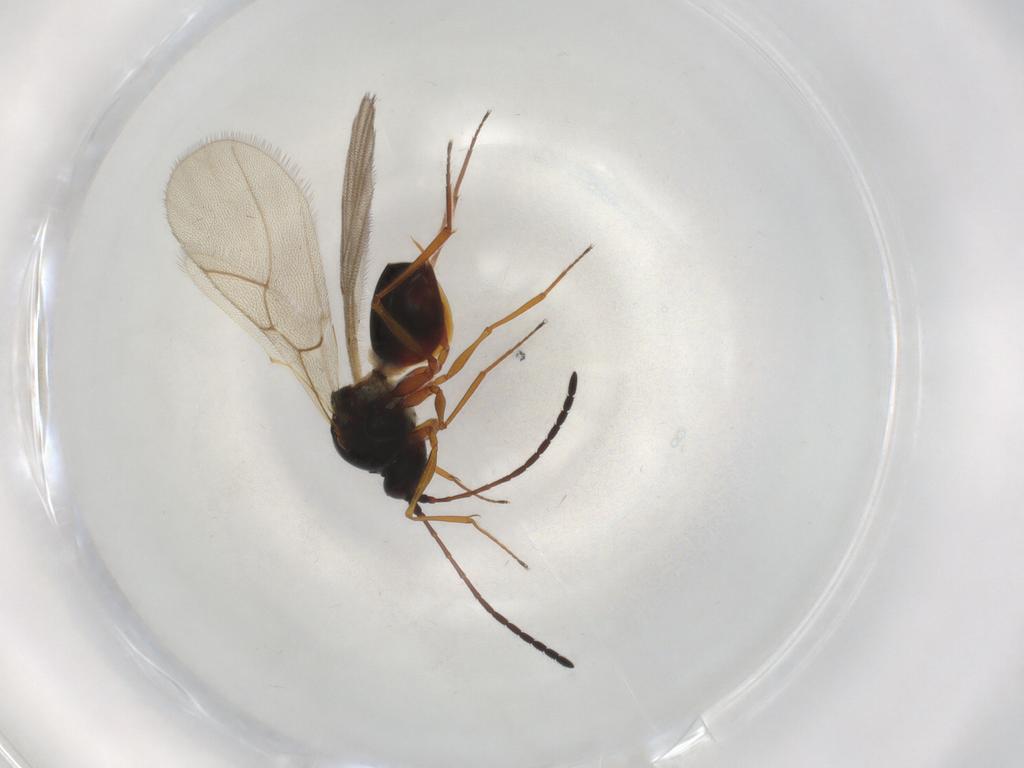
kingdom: Animalia
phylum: Arthropoda
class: Insecta
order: Hymenoptera
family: Figitidae
